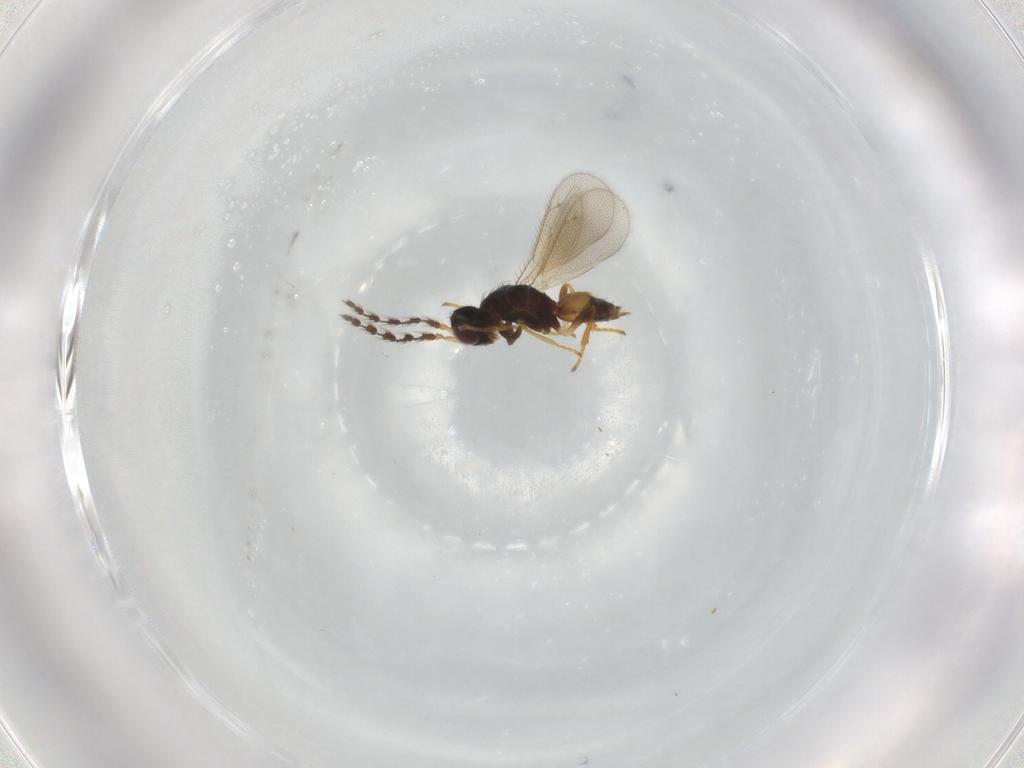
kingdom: Animalia
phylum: Arthropoda
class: Insecta
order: Hymenoptera
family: Eulophidae
